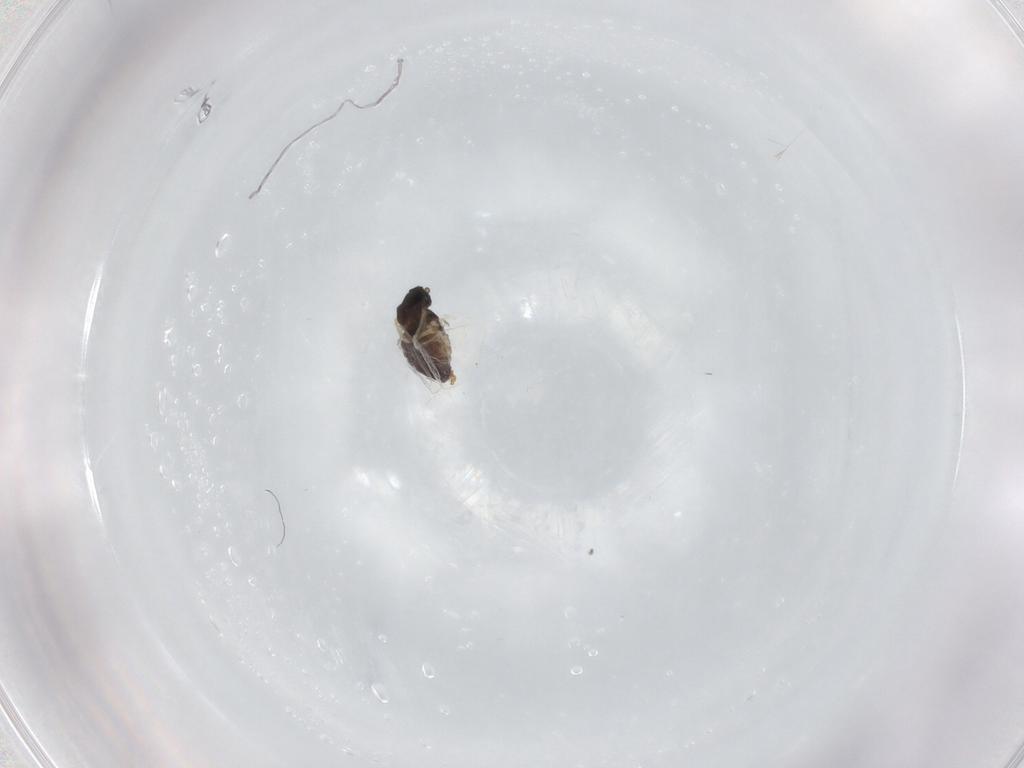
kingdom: Animalia
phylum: Arthropoda
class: Insecta
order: Diptera
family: Cecidomyiidae
